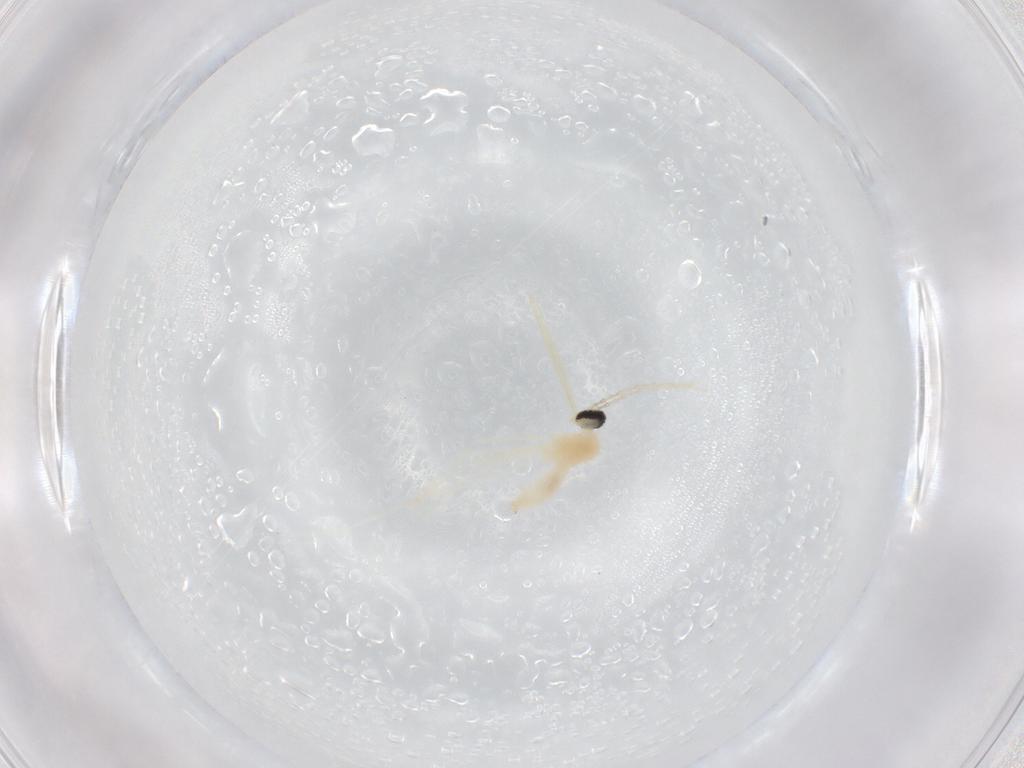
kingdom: Animalia
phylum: Arthropoda
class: Insecta
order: Diptera
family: Cecidomyiidae
